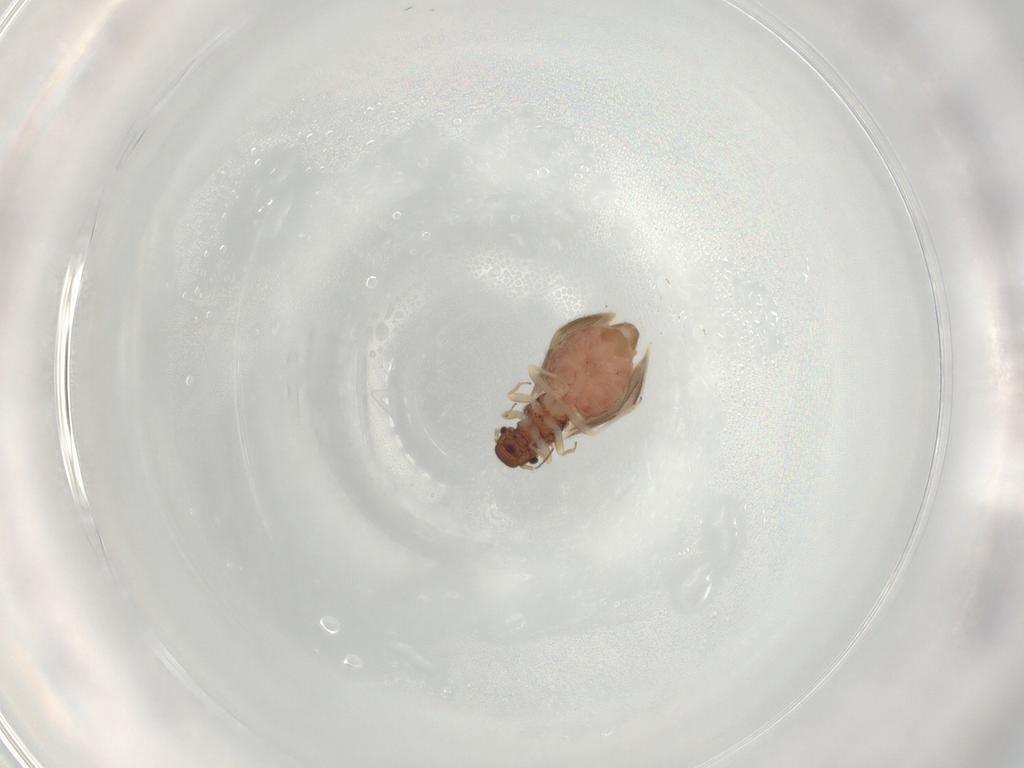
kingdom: Animalia
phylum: Arthropoda
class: Insecta
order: Psocodea
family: Archipsocidae
